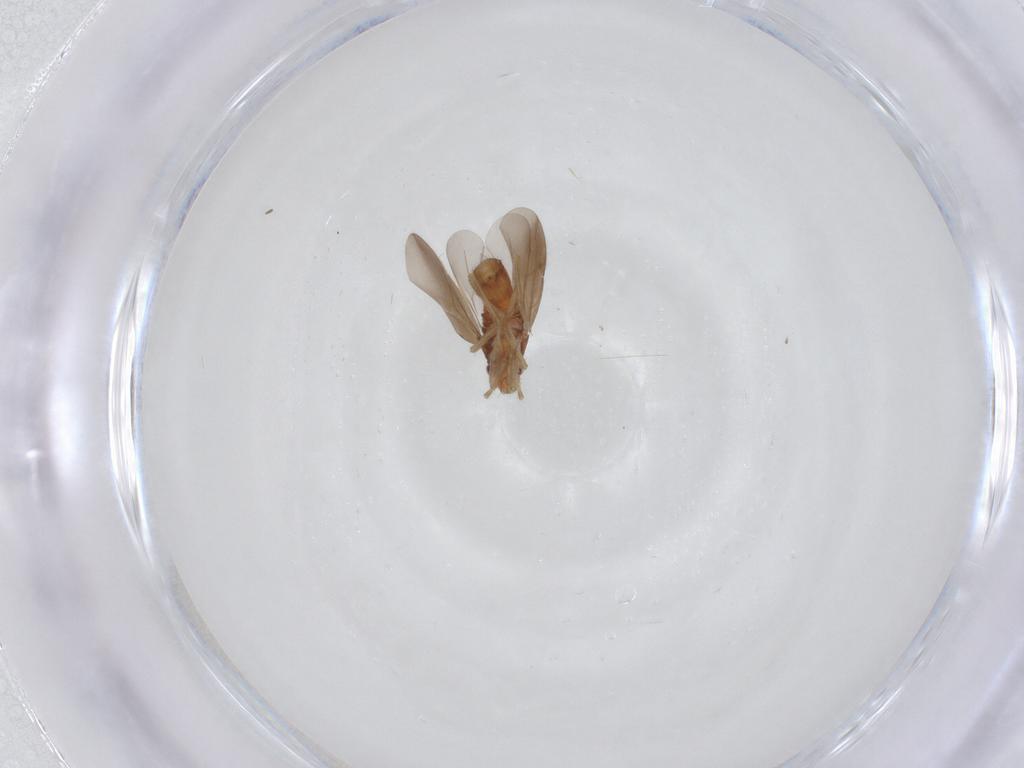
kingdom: Animalia
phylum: Arthropoda
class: Insecta
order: Hemiptera
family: Ceratocombidae
